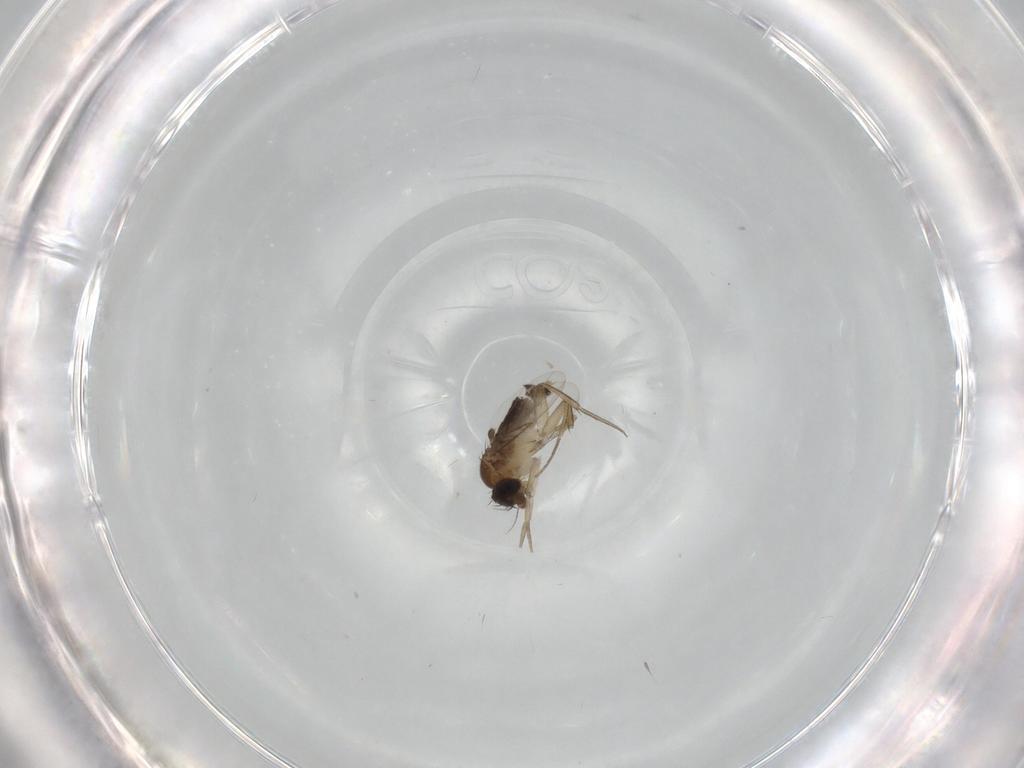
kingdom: Animalia
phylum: Arthropoda
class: Insecta
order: Diptera
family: Phoridae
